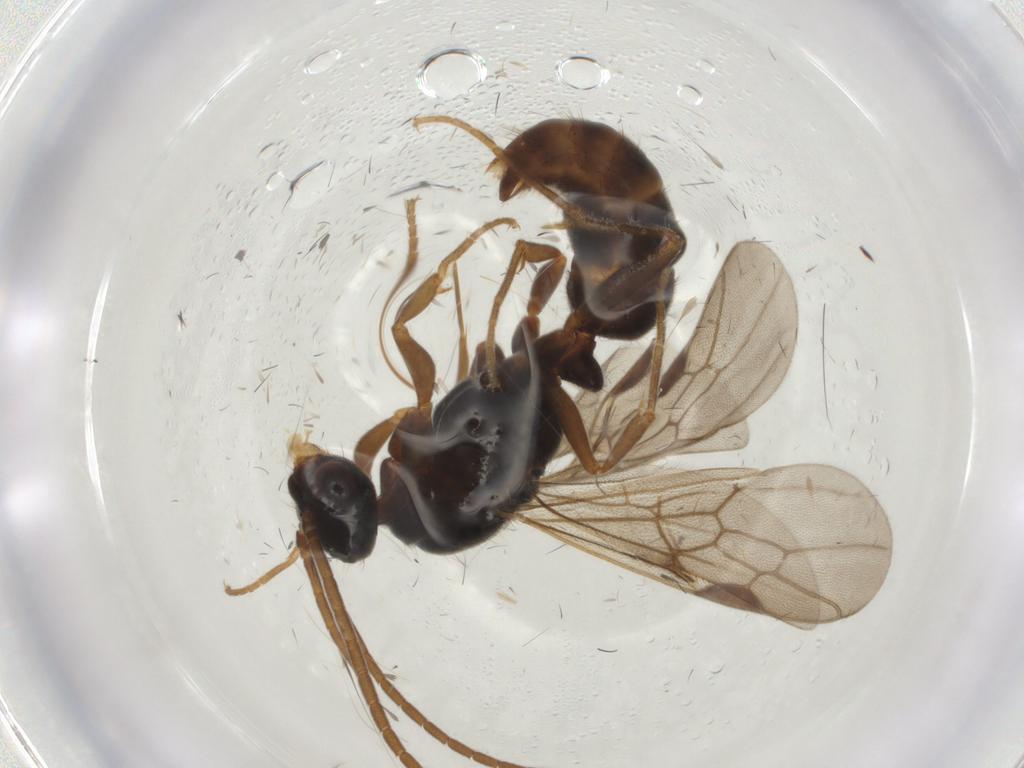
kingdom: Animalia
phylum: Arthropoda
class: Insecta
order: Hymenoptera
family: Formicidae
